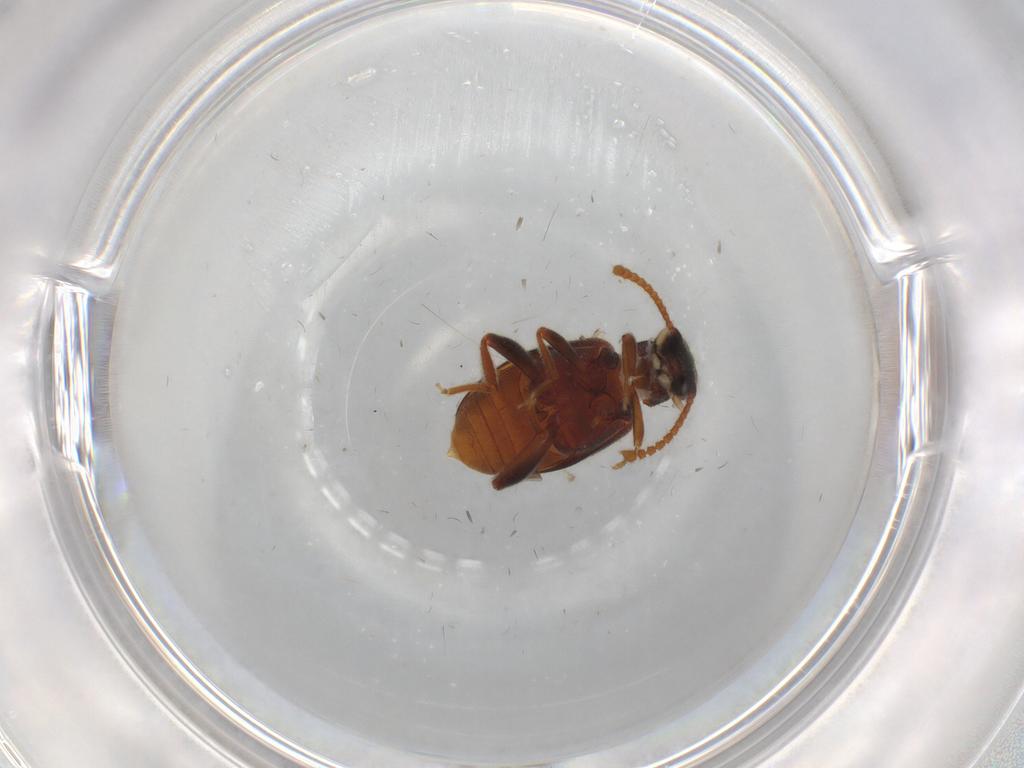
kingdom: Animalia
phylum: Arthropoda
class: Insecta
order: Coleoptera
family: Aderidae
